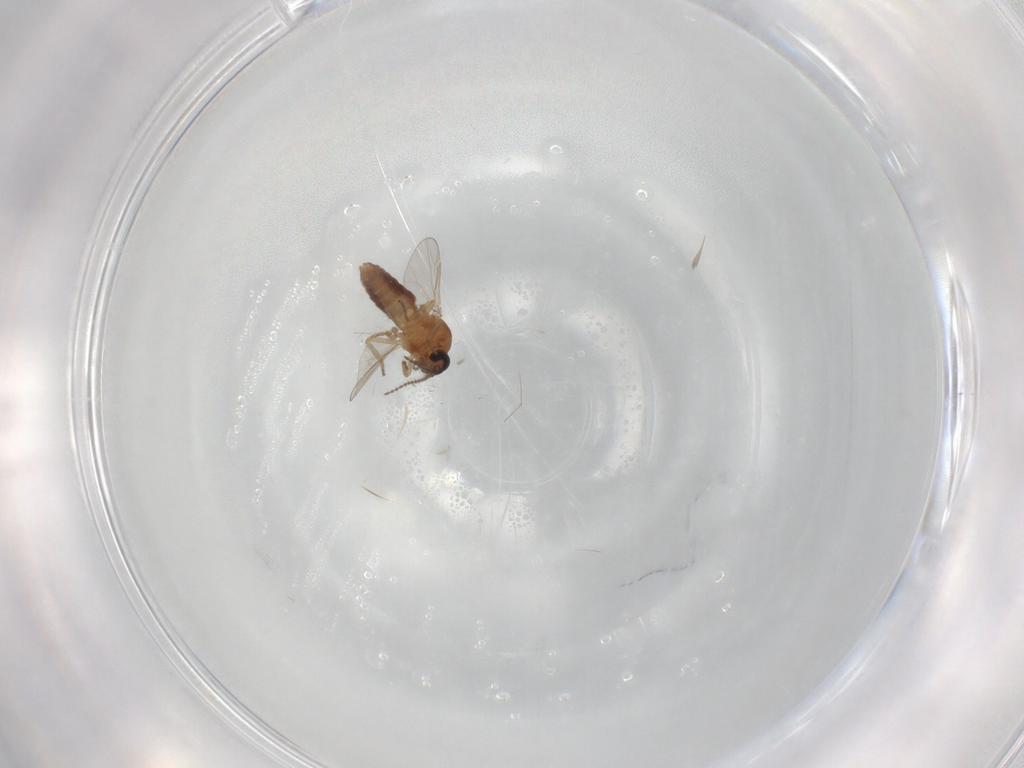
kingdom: Animalia
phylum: Arthropoda
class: Insecta
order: Diptera
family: Ceratopogonidae
